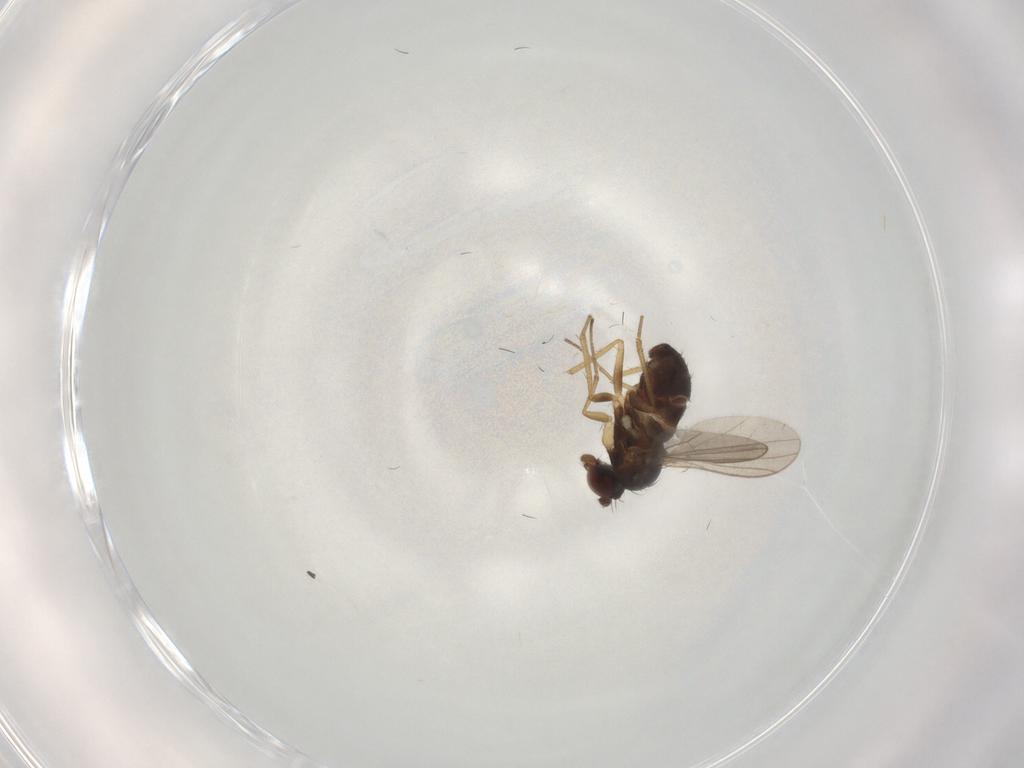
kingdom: Animalia
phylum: Arthropoda
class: Insecta
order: Diptera
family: Dolichopodidae
